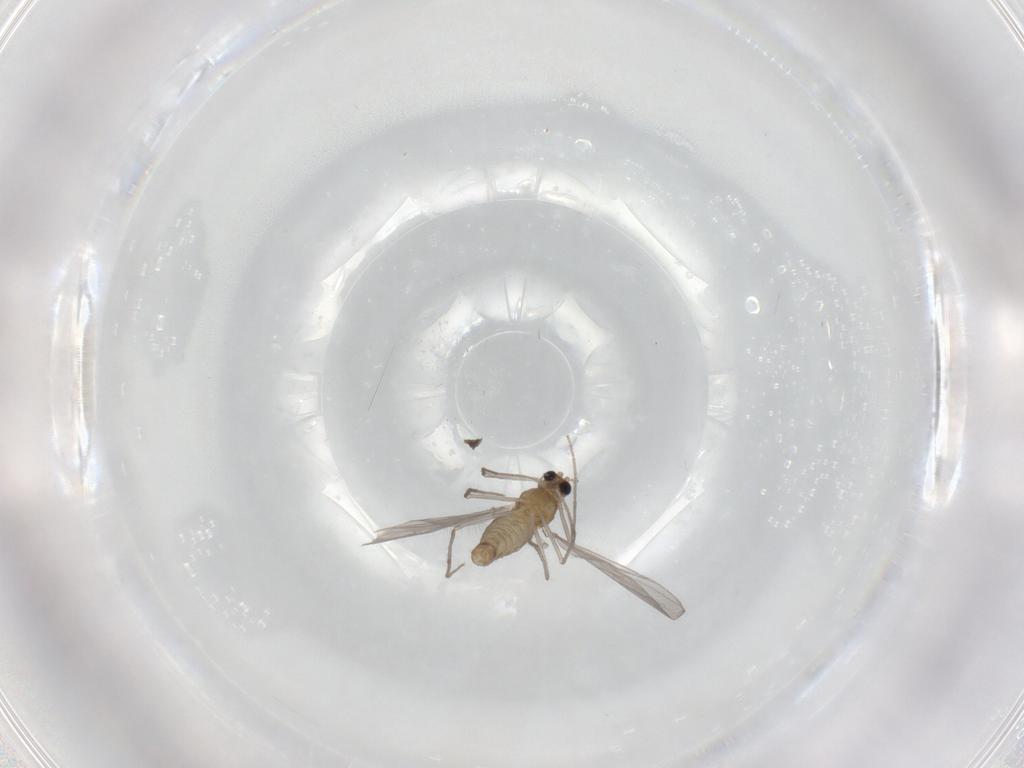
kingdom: Animalia
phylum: Arthropoda
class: Insecta
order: Diptera
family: Chironomidae
